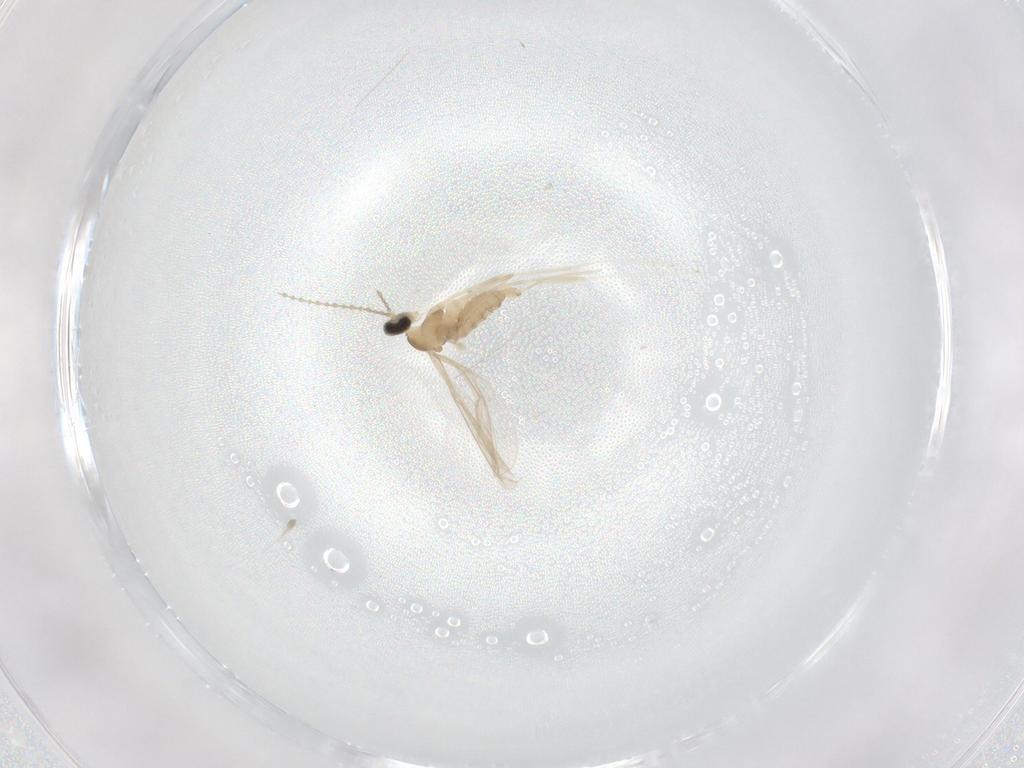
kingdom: Animalia
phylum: Arthropoda
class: Insecta
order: Diptera
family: Cecidomyiidae
